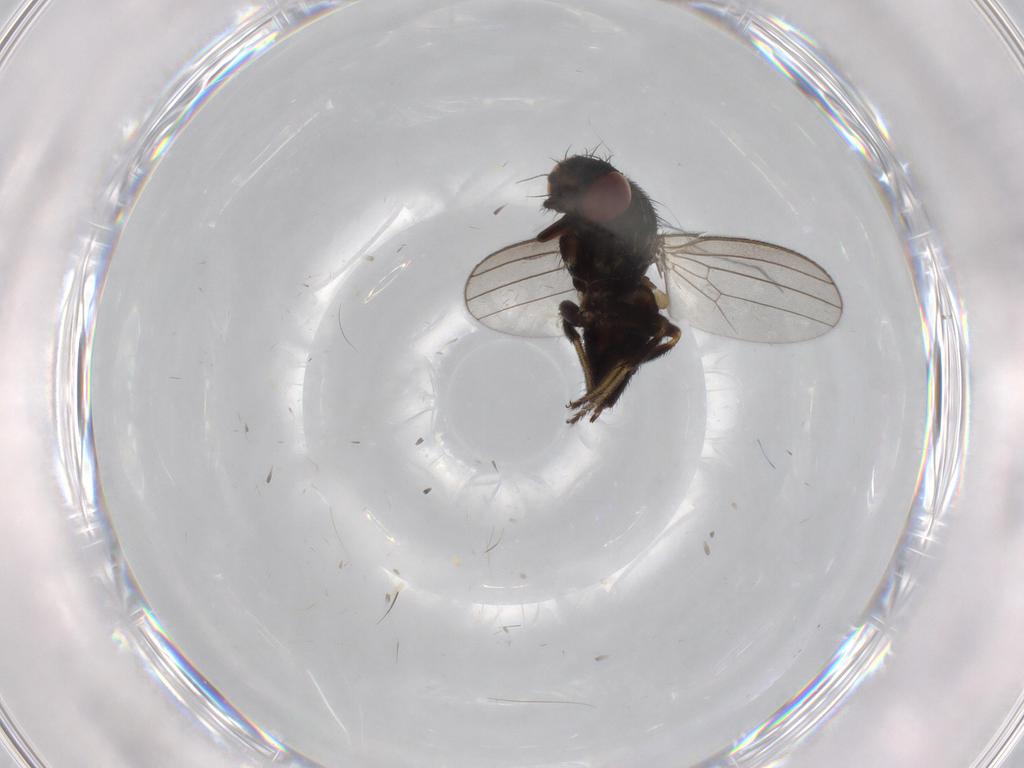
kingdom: Animalia
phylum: Arthropoda
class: Insecta
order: Diptera
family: Milichiidae
